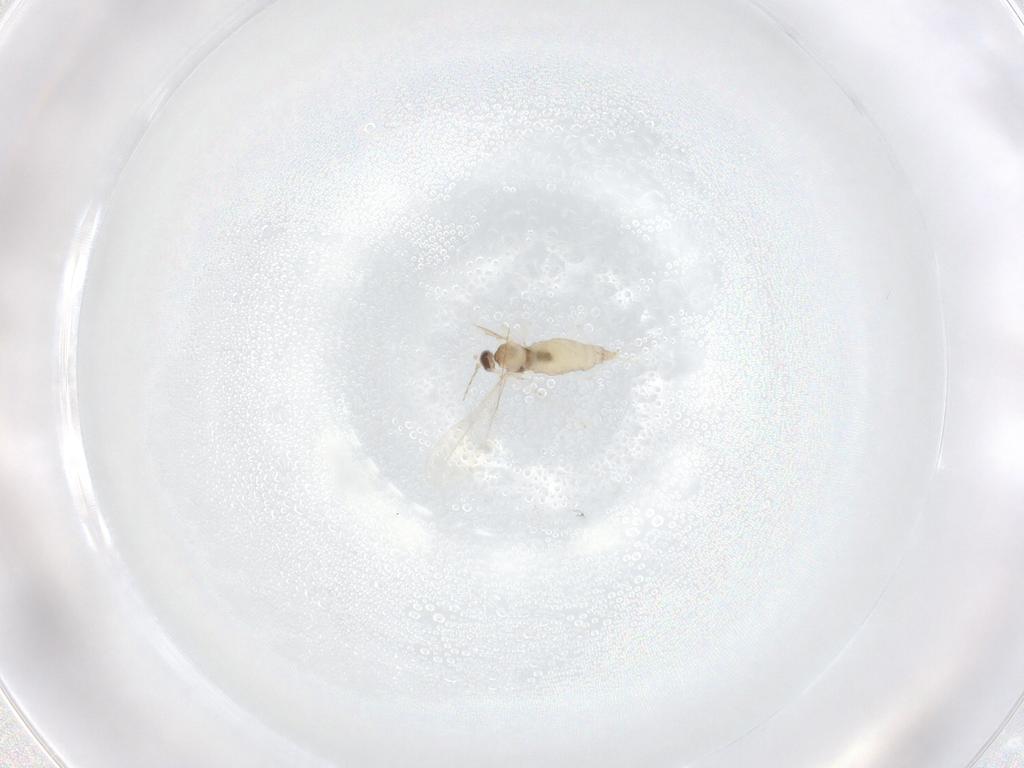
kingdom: Animalia
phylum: Arthropoda
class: Insecta
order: Diptera
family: Cecidomyiidae
